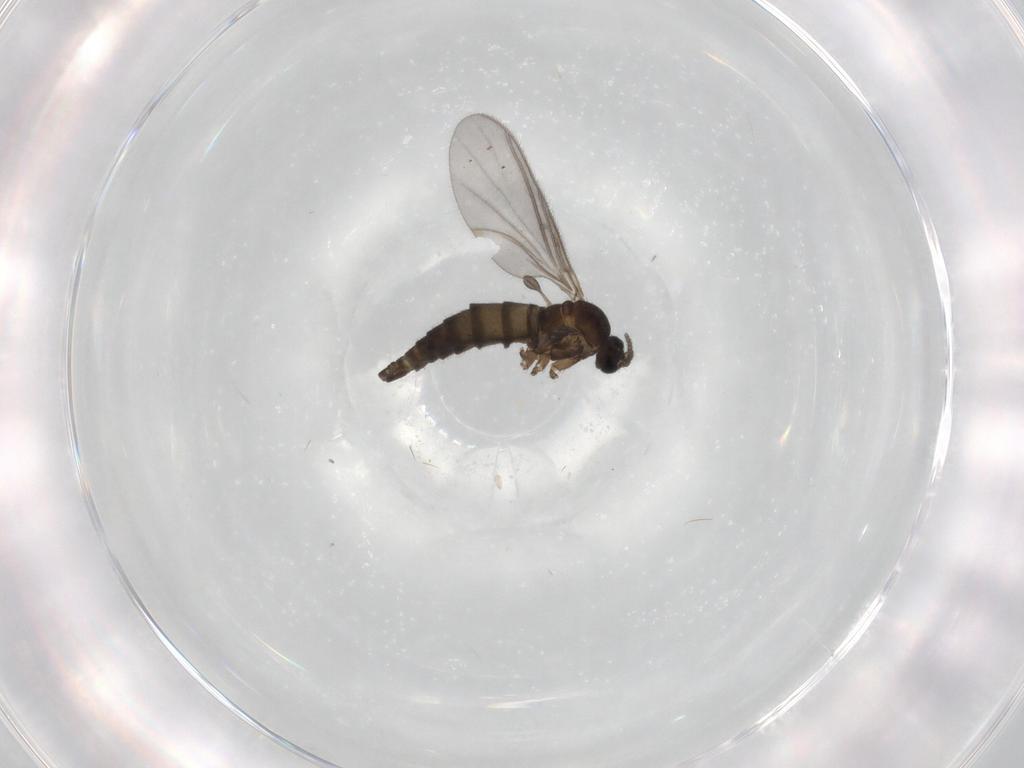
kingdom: Animalia
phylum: Arthropoda
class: Insecta
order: Diptera
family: Sciaridae
